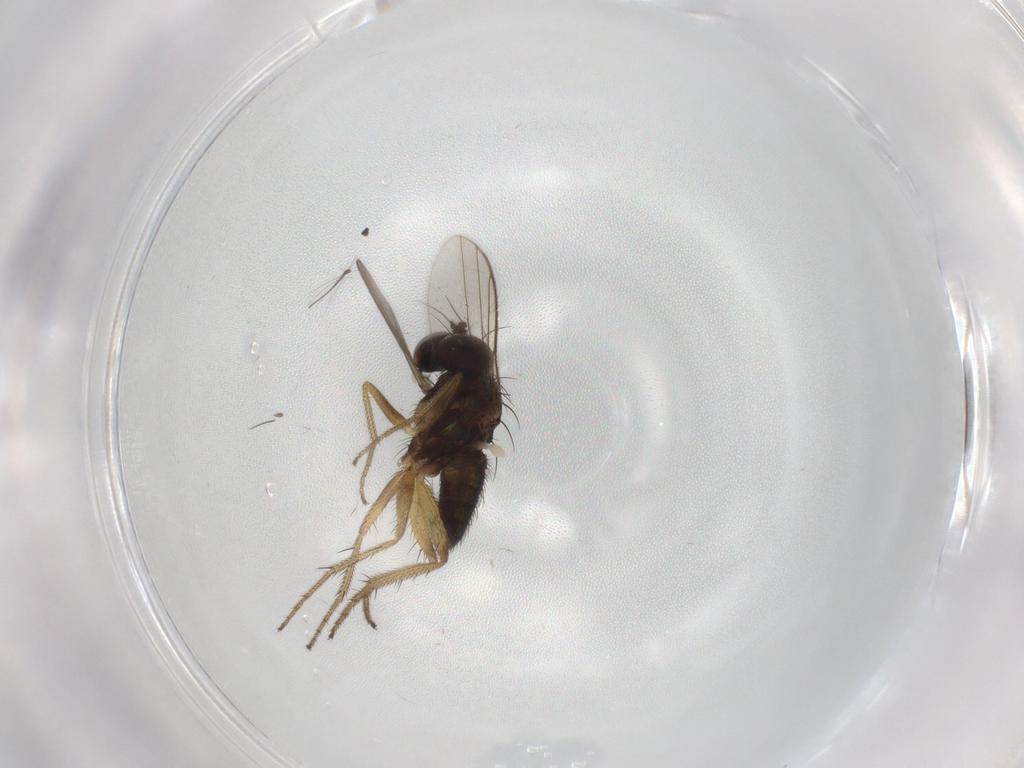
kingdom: Animalia
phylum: Arthropoda
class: Insecta
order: Diptera
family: Chironomidae
